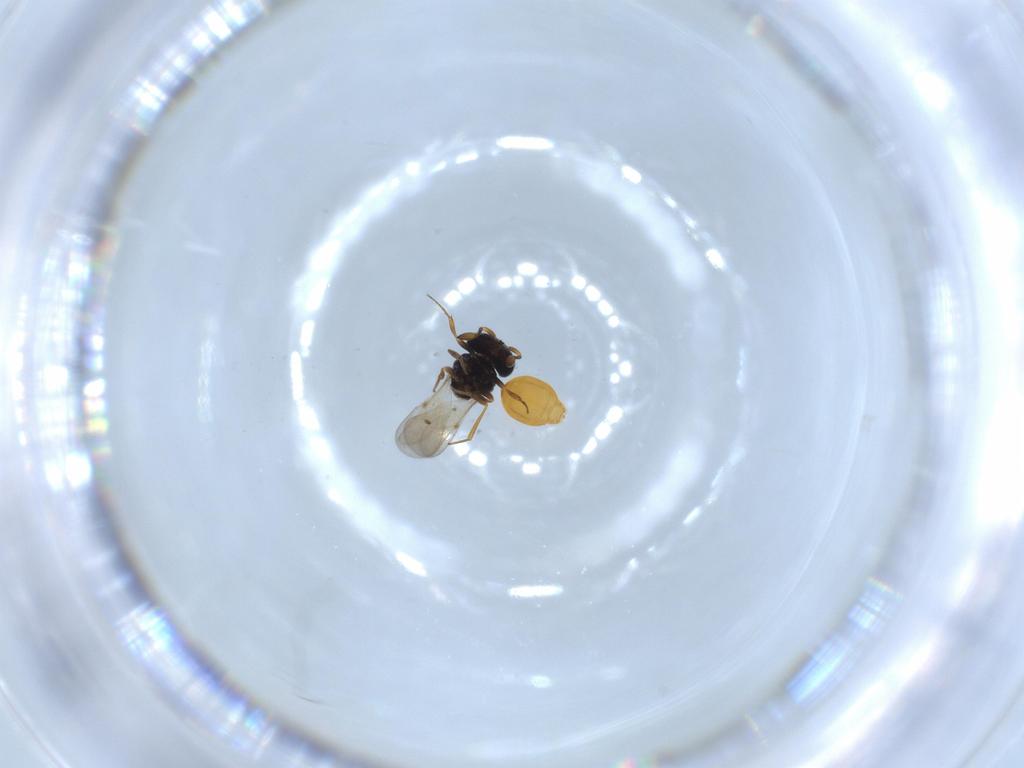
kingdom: Animalia
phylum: Arthropoda
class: Insecta
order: Hymenoptera
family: Scelionidae
